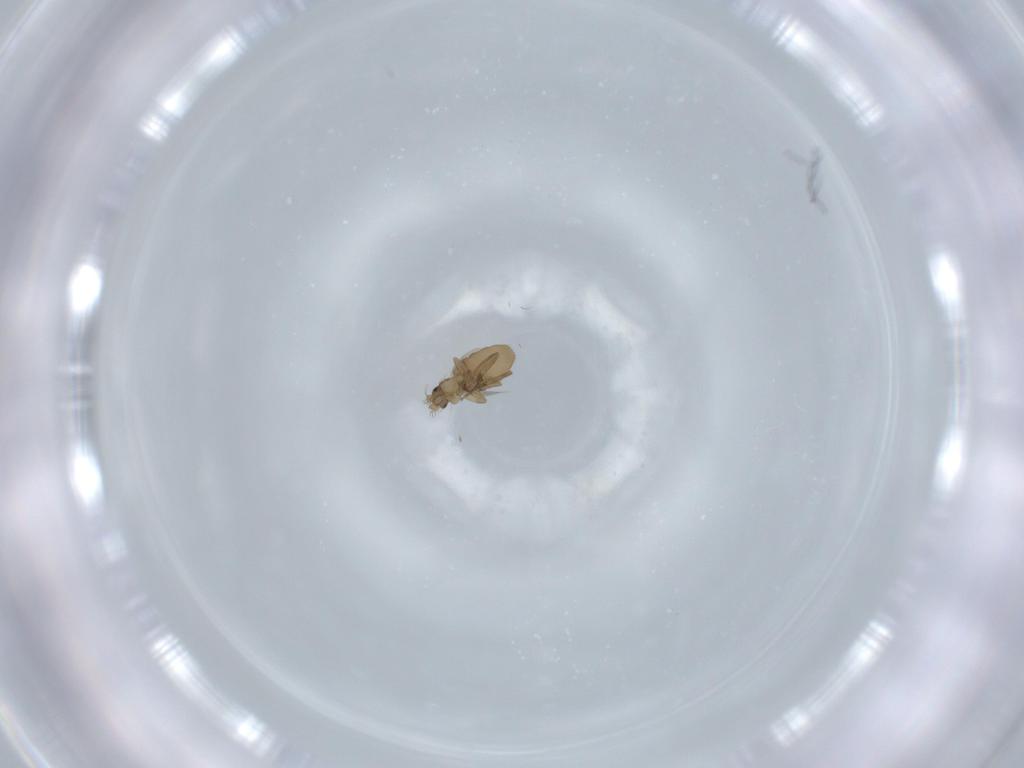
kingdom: Animalia
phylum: Arthropoda
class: Insecta
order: Diptera
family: Phoridae
